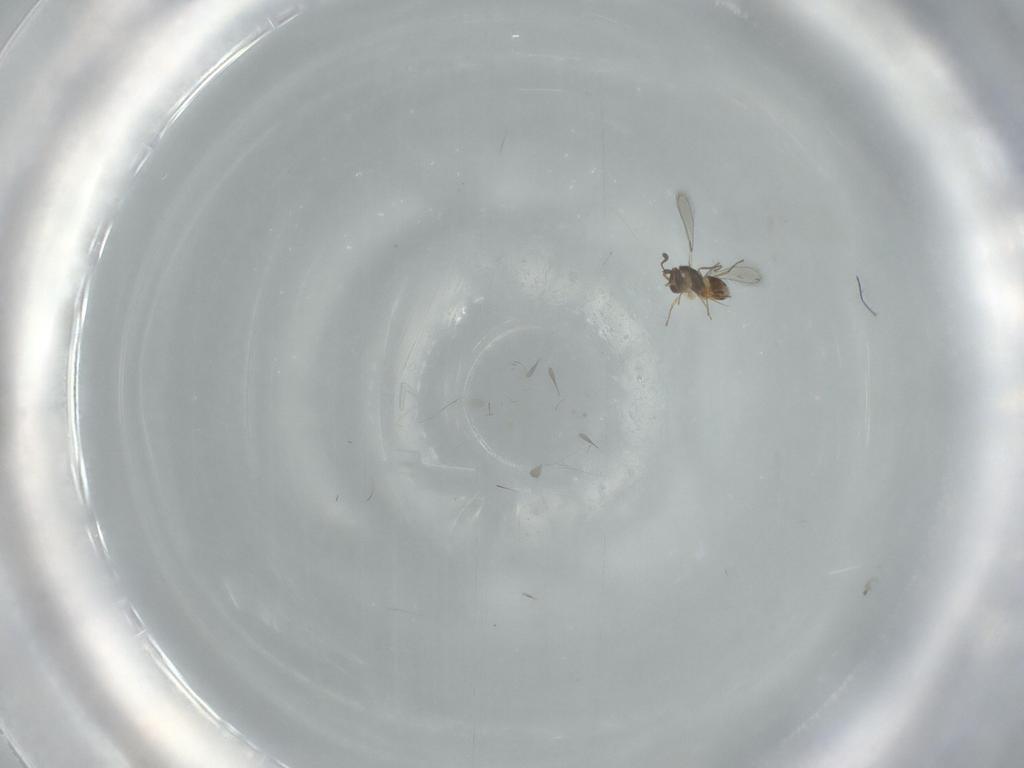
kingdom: Animalia
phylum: Arthropoda
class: Insecta
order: Hymenoptera
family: Mymaridae
